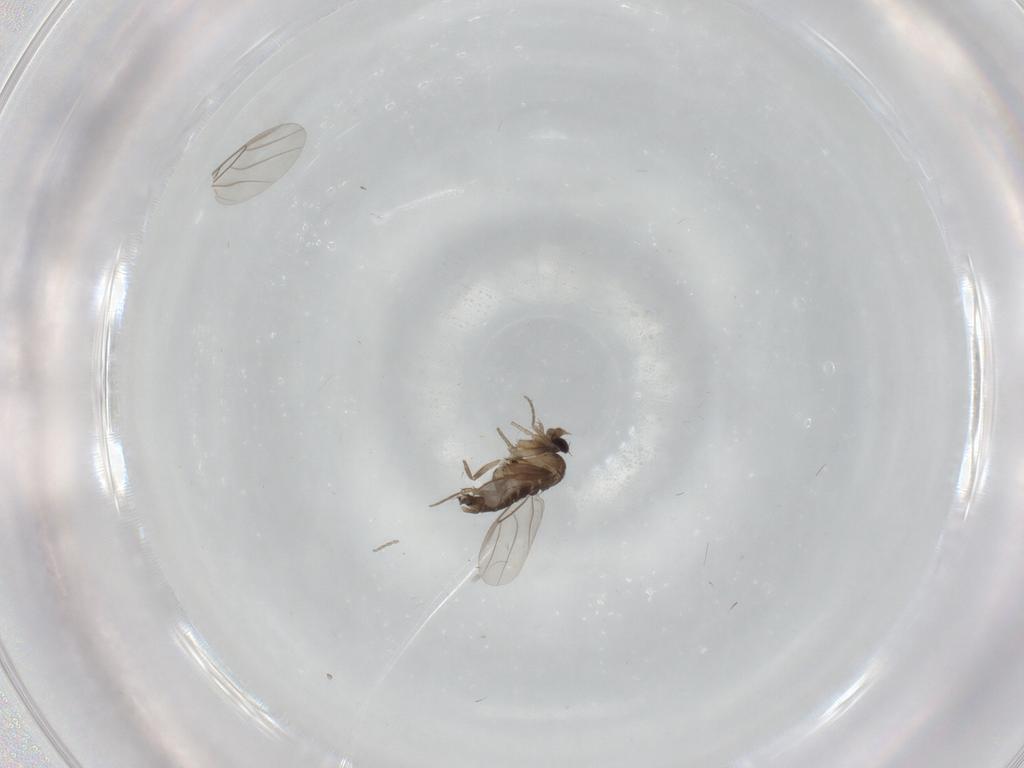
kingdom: Animalia
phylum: Arthropoda
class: Insecta
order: Diptera
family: Phoridae
